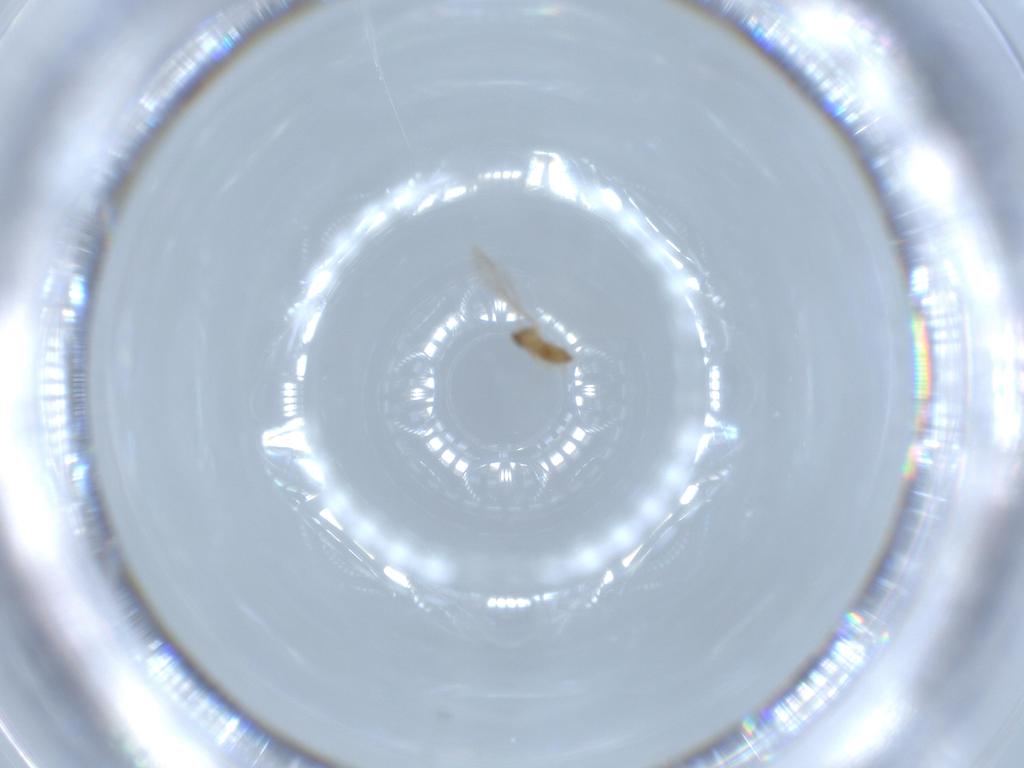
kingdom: Animalia
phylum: Arthropoda
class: Insecta
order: Diptera
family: Cecidomyiidae
